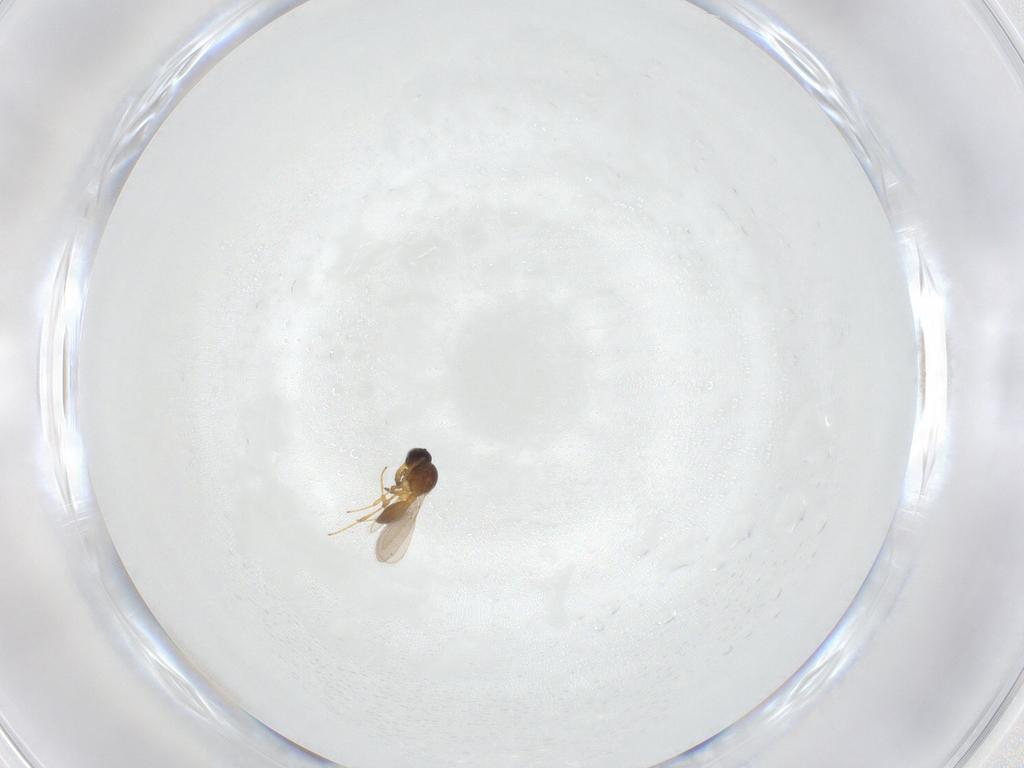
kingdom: Animalia
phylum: Arthropoda
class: Insecta
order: Hymenoptera
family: Platygastridae
